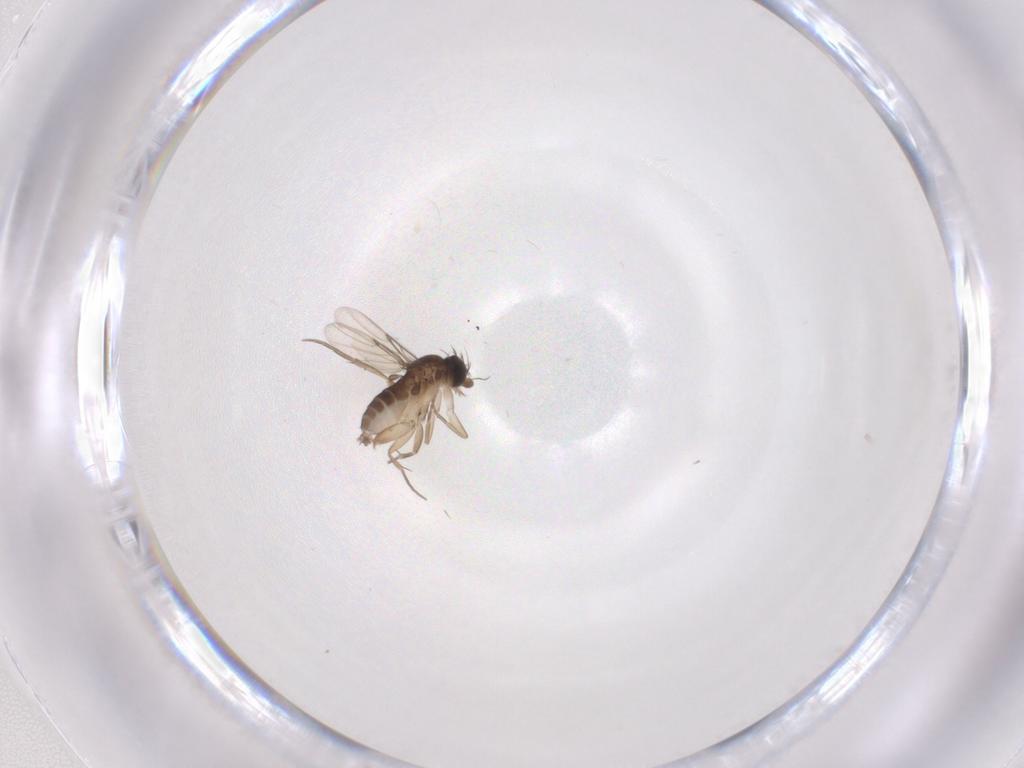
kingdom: Animalia
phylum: Arthropoda
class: Insecta
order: Diptera
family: Phoridae
